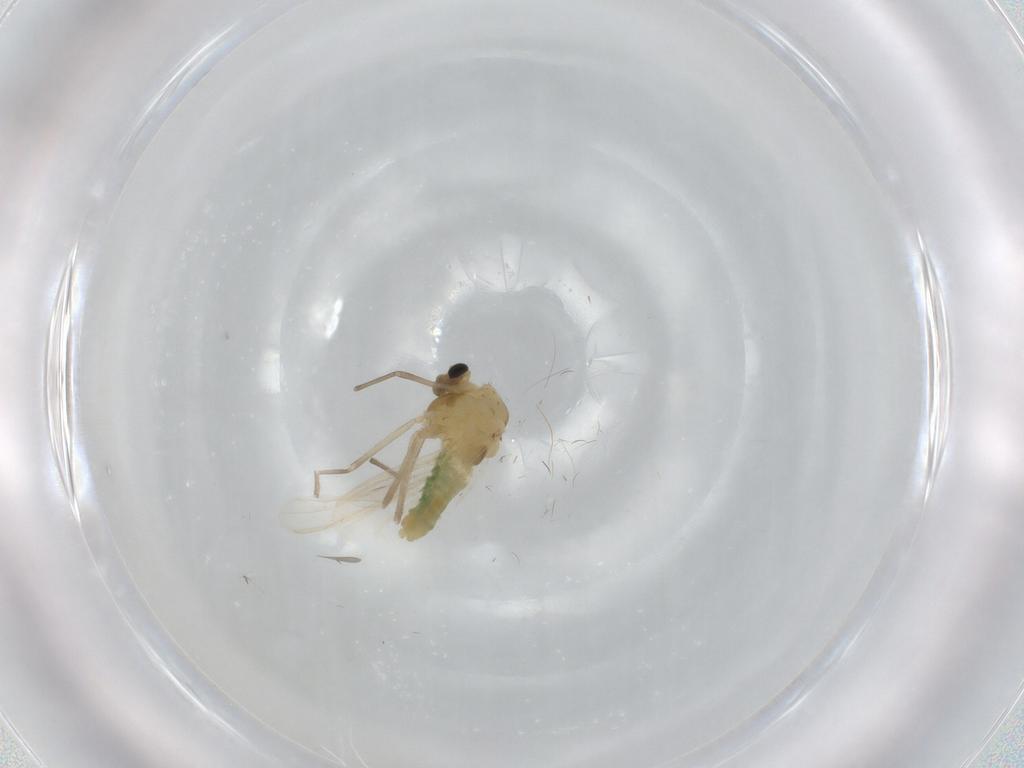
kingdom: Animalia
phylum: Arthropoda
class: Insecta
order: Diptera
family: Chironomidae
